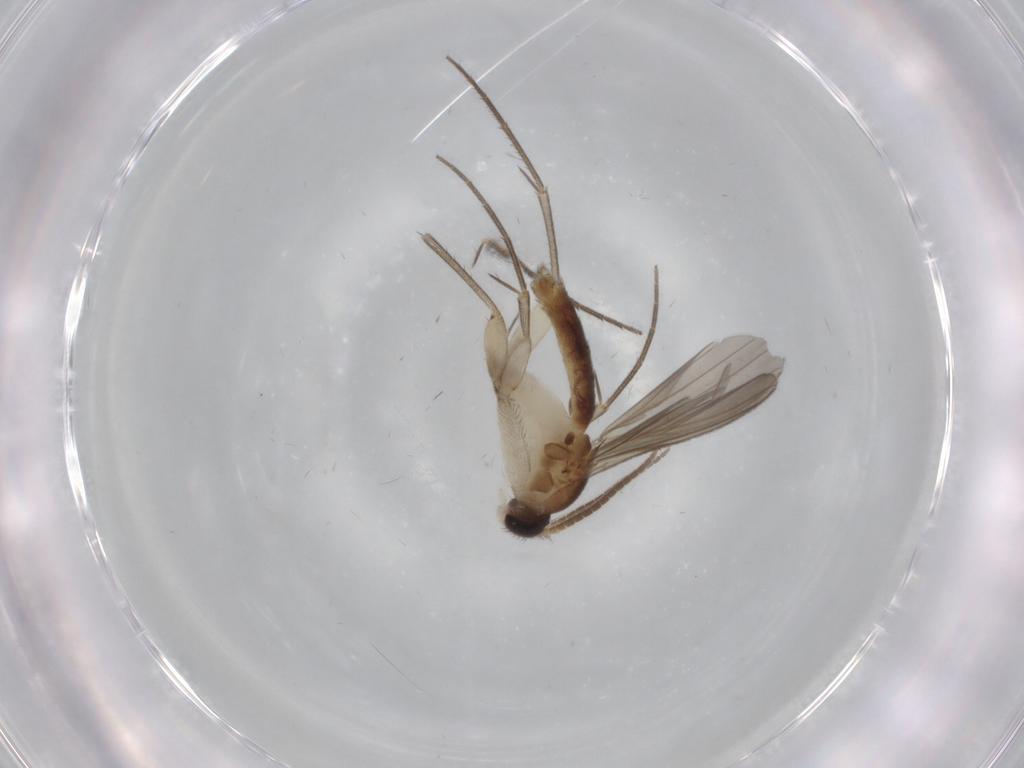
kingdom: Animalia
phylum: Arthropoda
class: Insecta
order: Diptera
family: Mycetophilidae
